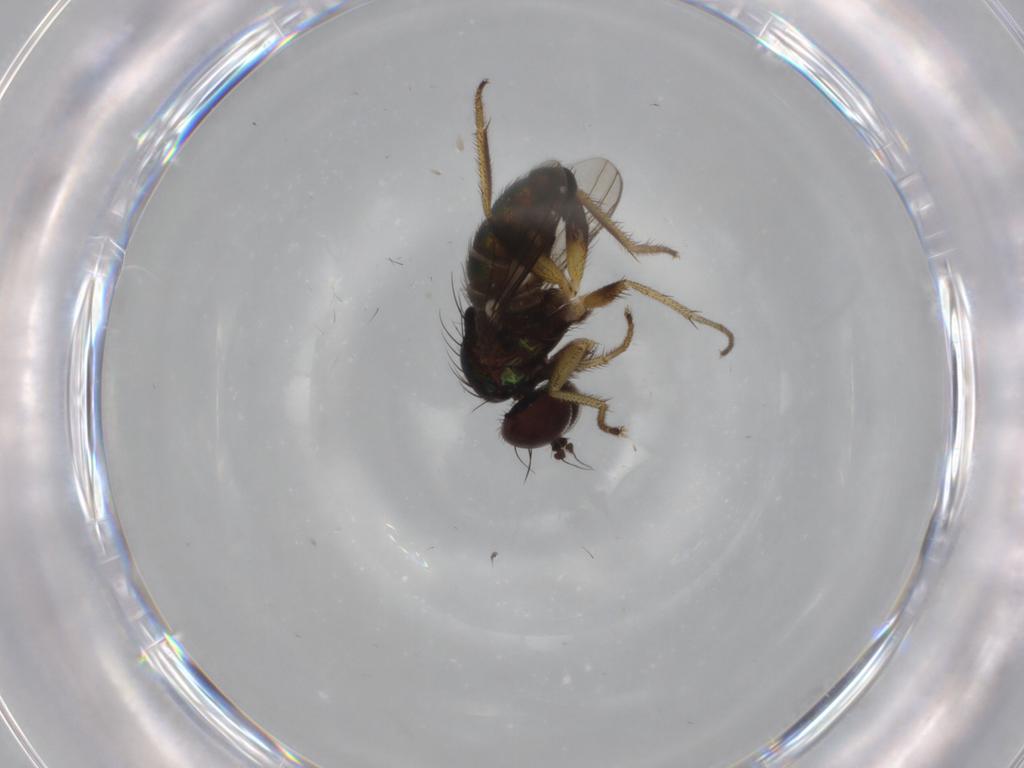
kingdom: Animalia
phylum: Arthropoda
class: Insecta
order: Diptera
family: Dolichopodidae
